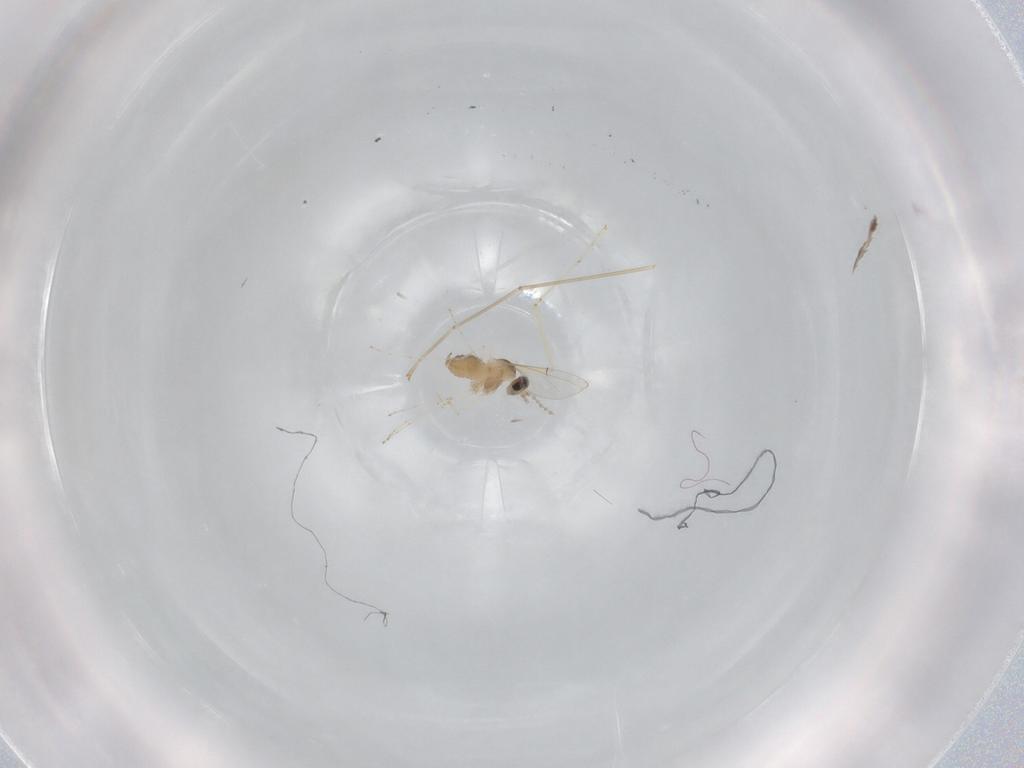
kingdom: Animalia
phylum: Arthropoda
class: Insecta
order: Diptera
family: Cecidomyiidae
